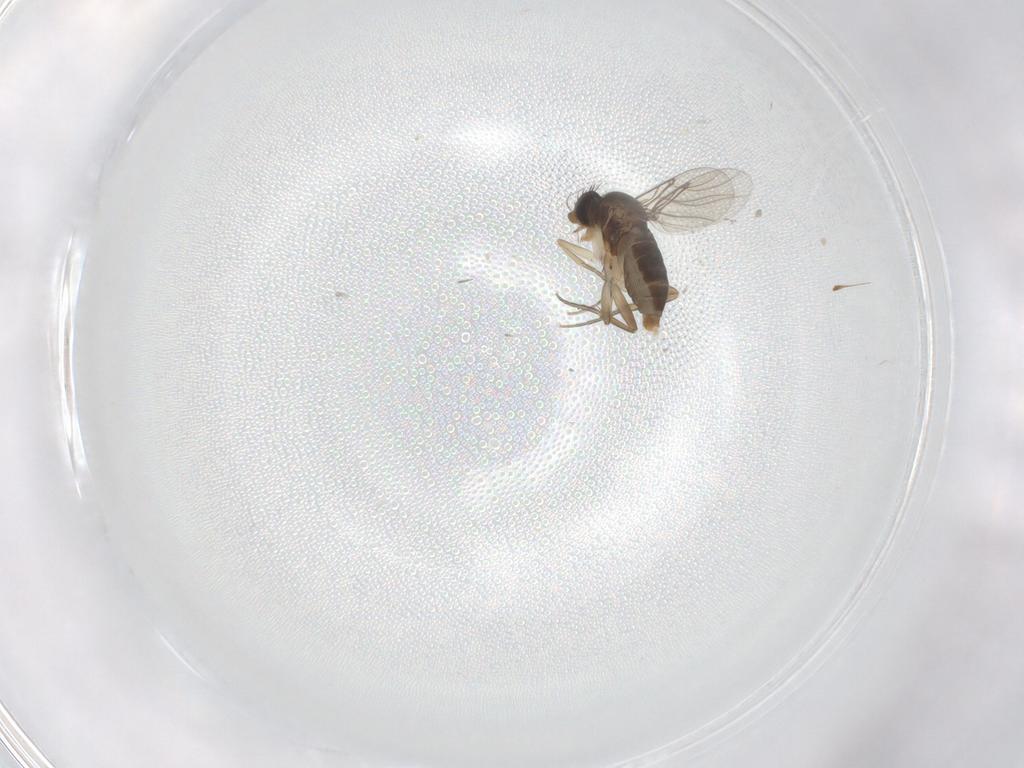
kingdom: Animalia
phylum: Arthropoda
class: Insecta
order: Diptera
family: Phoridae
